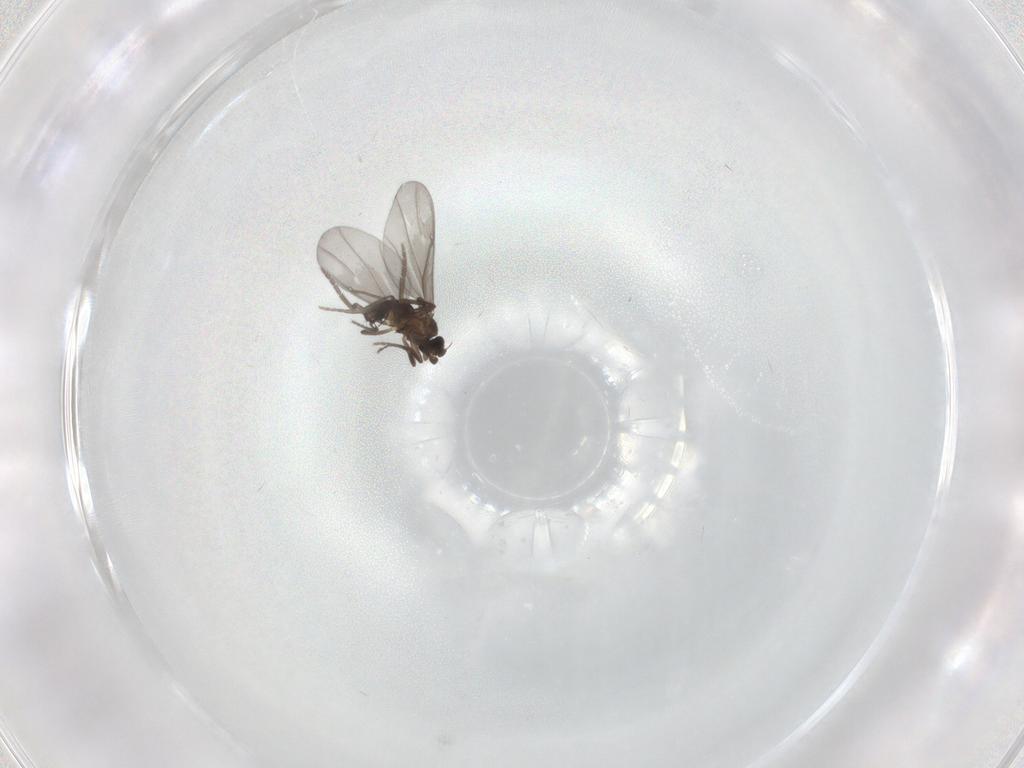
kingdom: Animalia
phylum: Arthropoda
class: Insecta
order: Diptera
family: Phoridae
